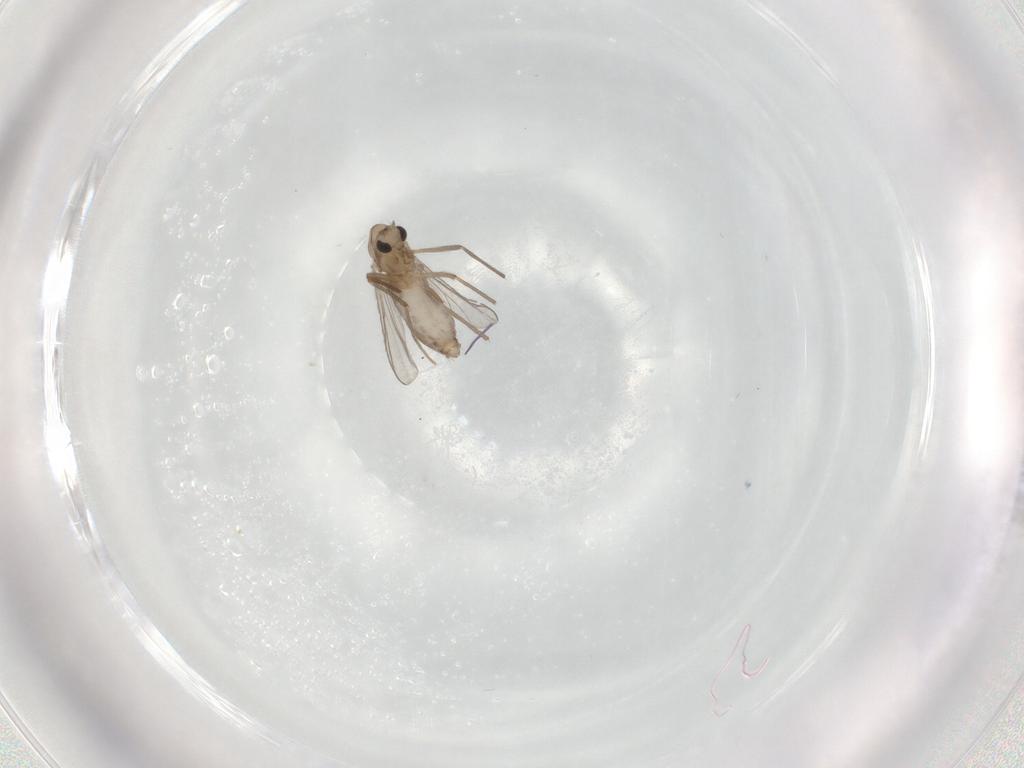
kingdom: Animalia
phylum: Arthropoda
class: Insecta
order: Diptera
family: Chironomidae
